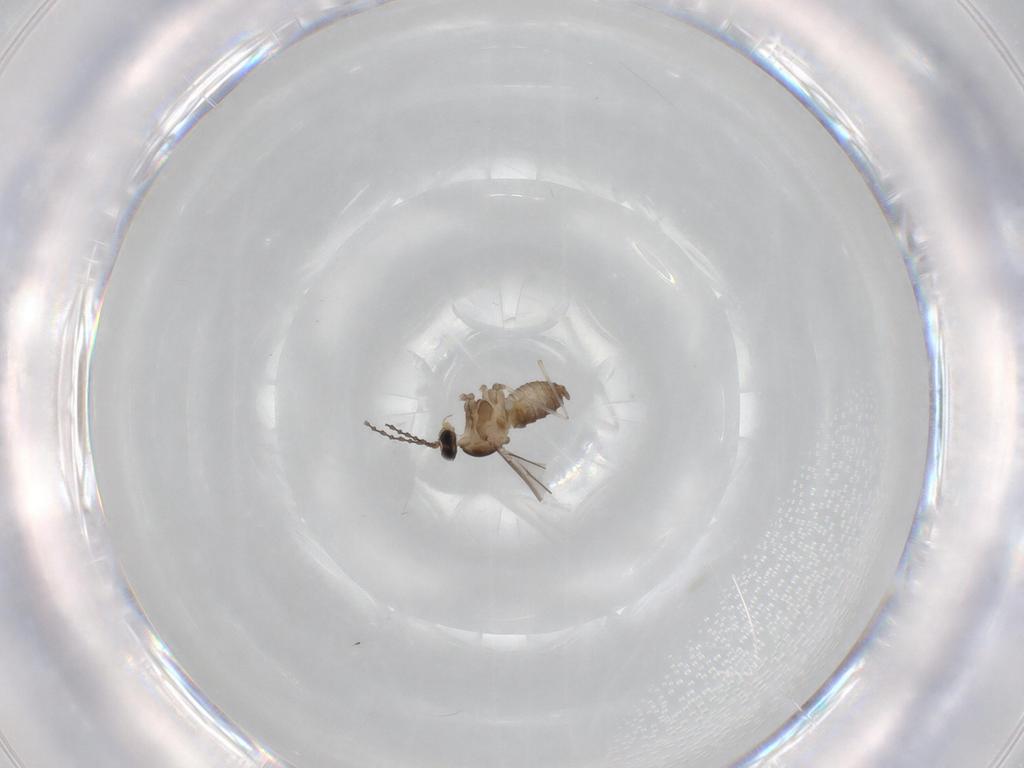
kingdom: Animalia
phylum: Arthropoda
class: Insecta
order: Diptera
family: Cecidomyiidae
